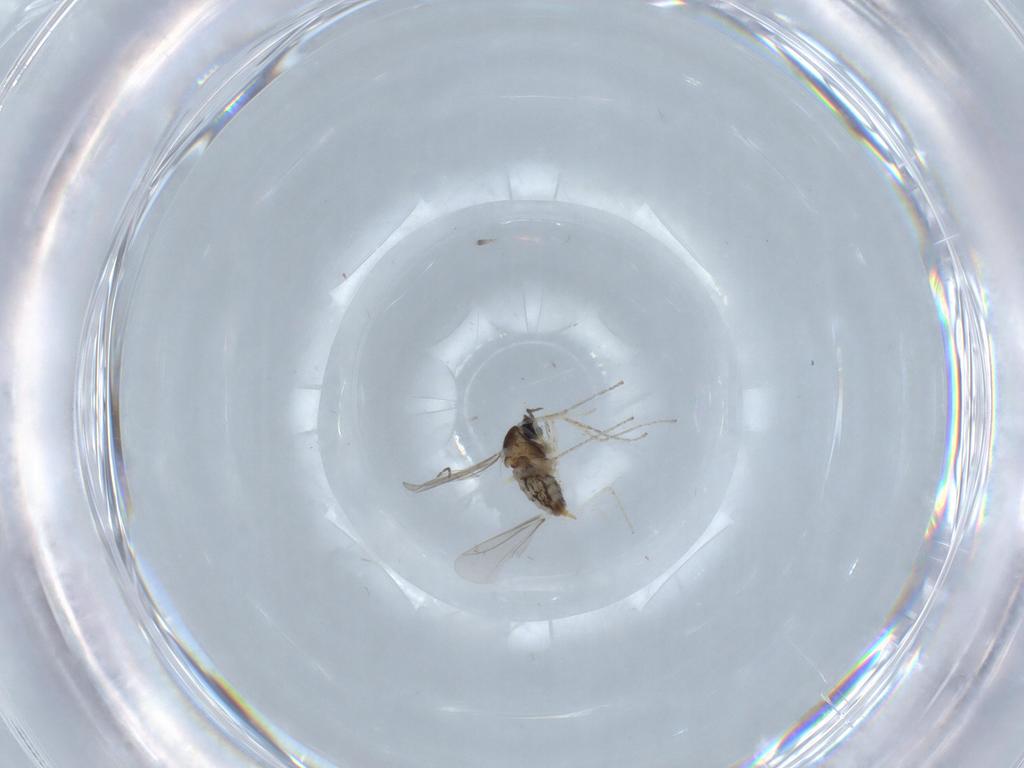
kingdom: Animalia
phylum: Arthropoda
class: Insecta
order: Diptera
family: Cecidomyiidae
